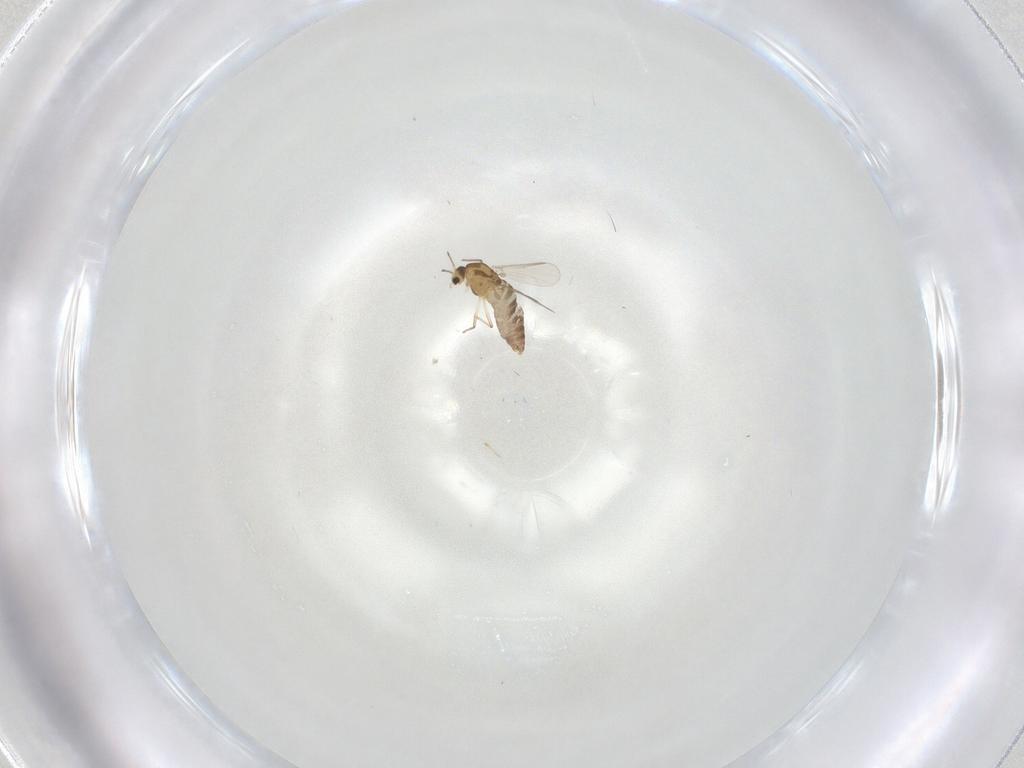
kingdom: Animalia
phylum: Arthropoda
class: Insecta
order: Diptera
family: Chironomidae
